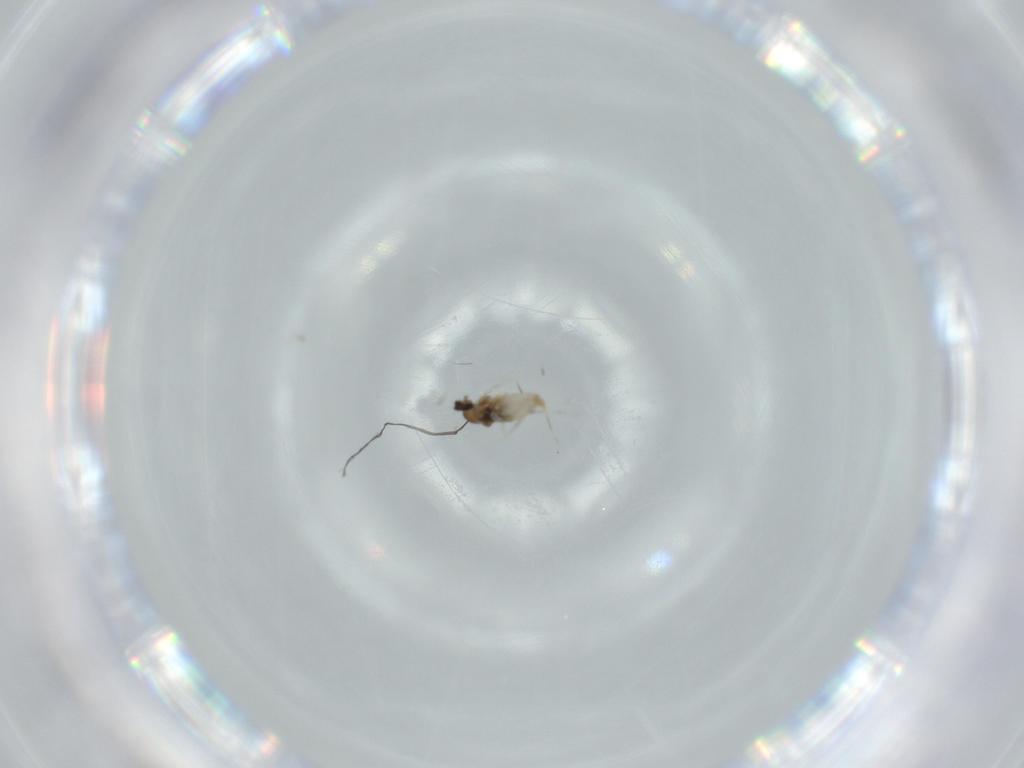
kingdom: Animalia
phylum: Arthropoda
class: Insecta
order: Diptera
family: Cecidomyiidae
